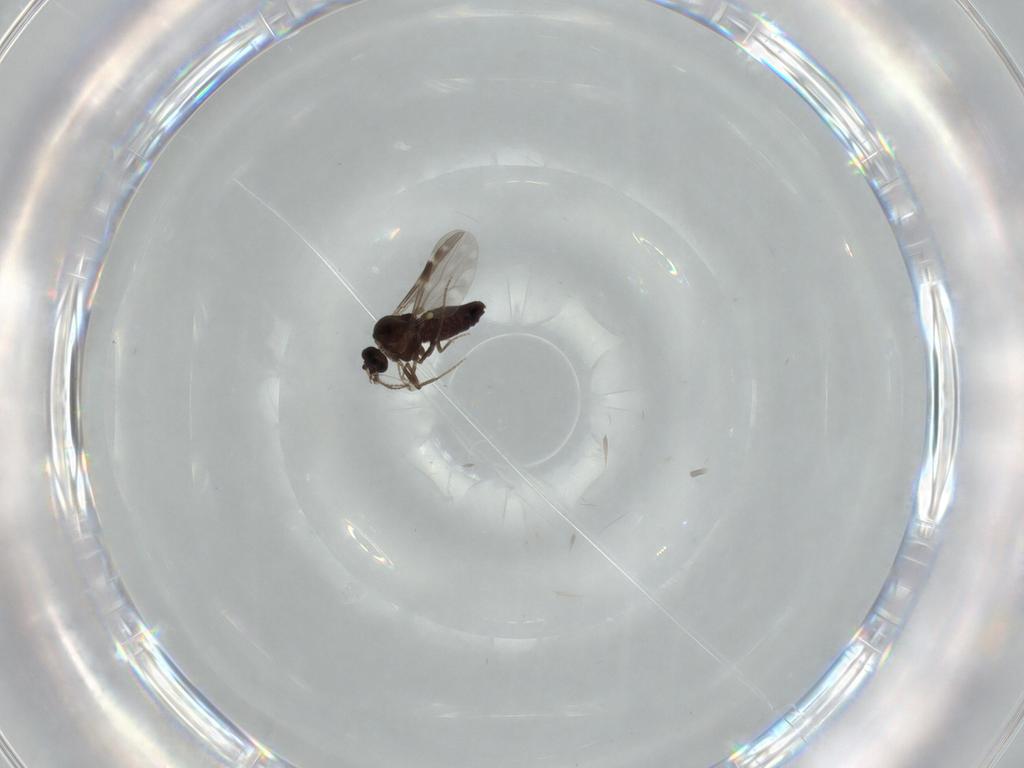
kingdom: Animalia
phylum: Arthropoda
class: Insecta
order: Diptera
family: Ceratopogonidae
